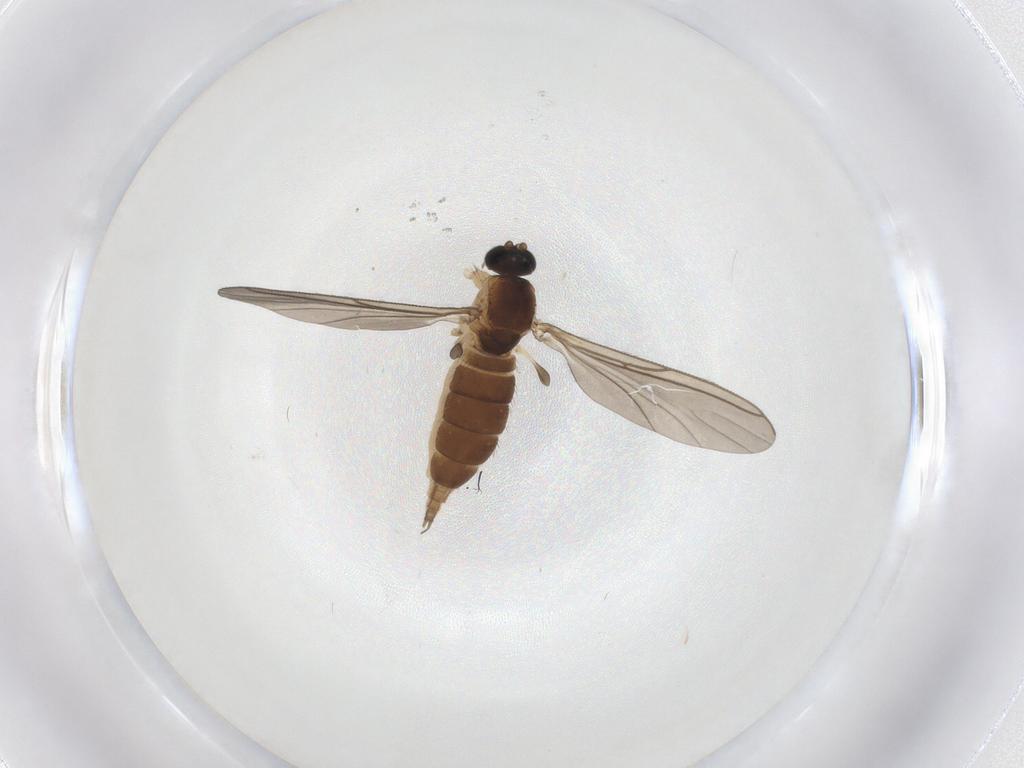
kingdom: Animalia
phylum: Arthropoda
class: Insecta
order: Diptera
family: Sciaridae
